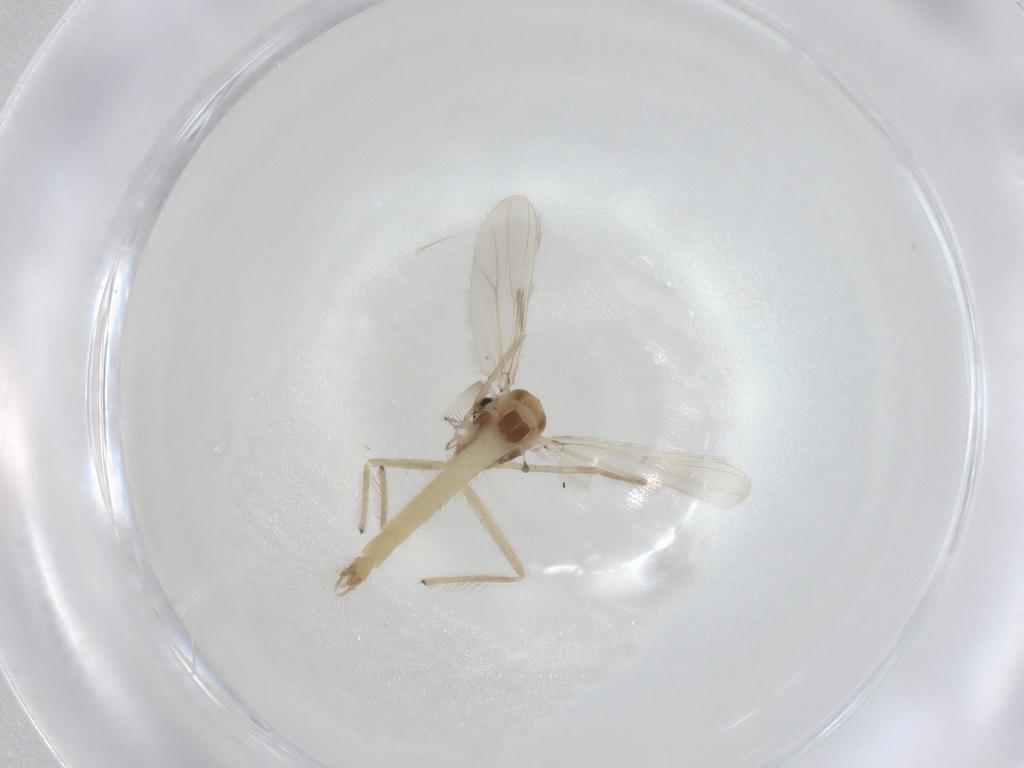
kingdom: Animalia
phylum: Arthropoda
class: Insecta
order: Diptera
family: Chironomidae
